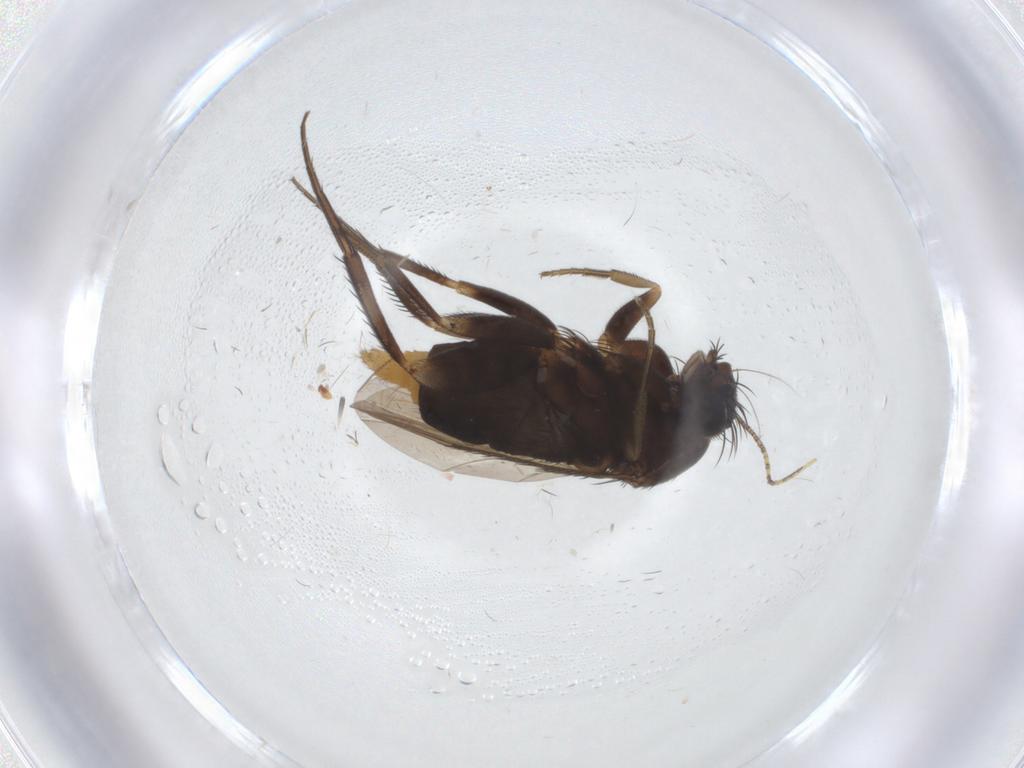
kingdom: Animalia
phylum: Arthropoda
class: Insecta
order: Diptera
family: Phoridae
